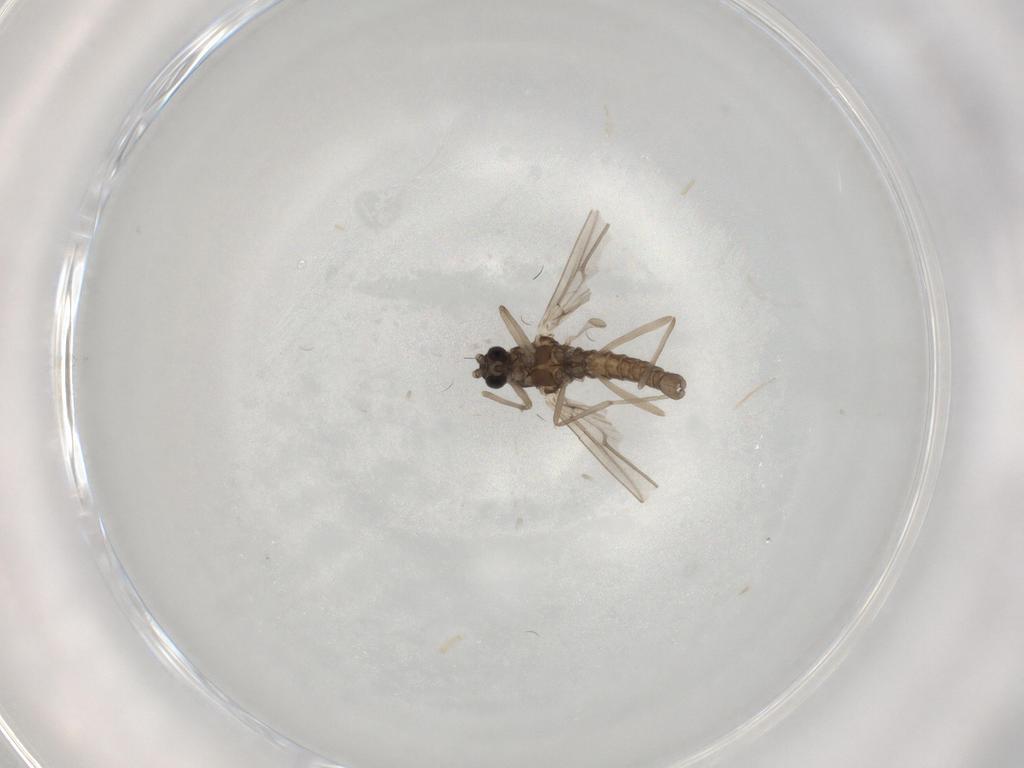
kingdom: Animalia
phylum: Arthropoda
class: Insecta
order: Diptera
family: Cecidomyiidae
